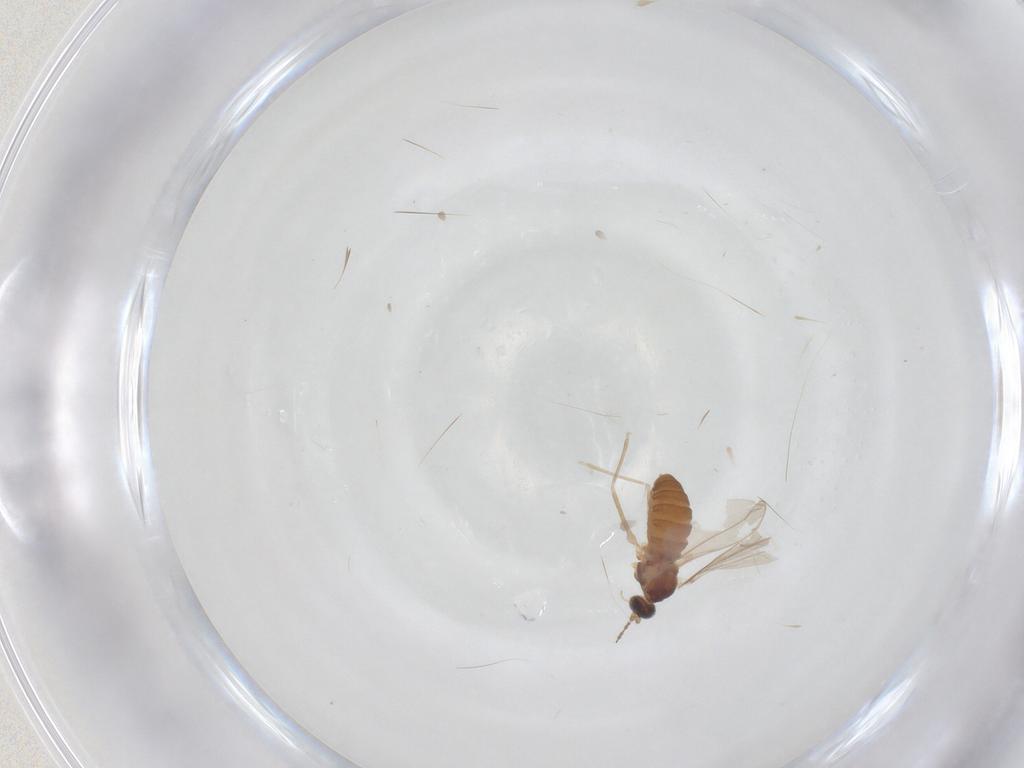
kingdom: Animalia
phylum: Arthropoda
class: Insecta
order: Diptera
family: Cecidomyiidae
